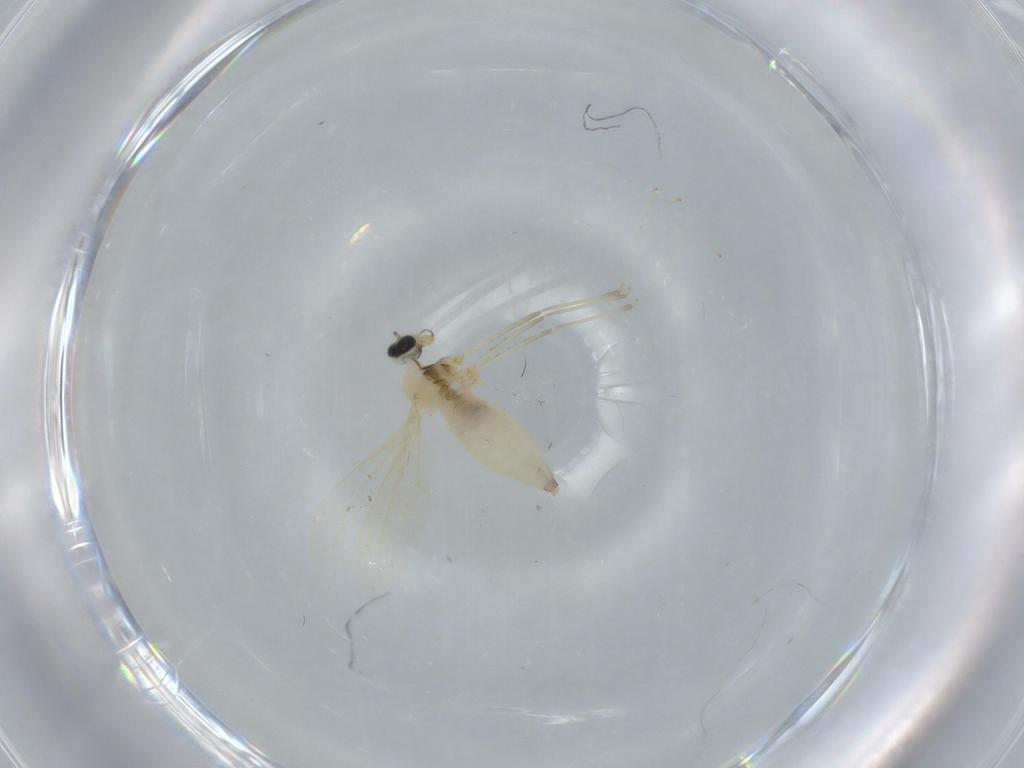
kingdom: Animalia
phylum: Arthropoda
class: Insecta
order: Diptera
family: Cecidomyiidae
